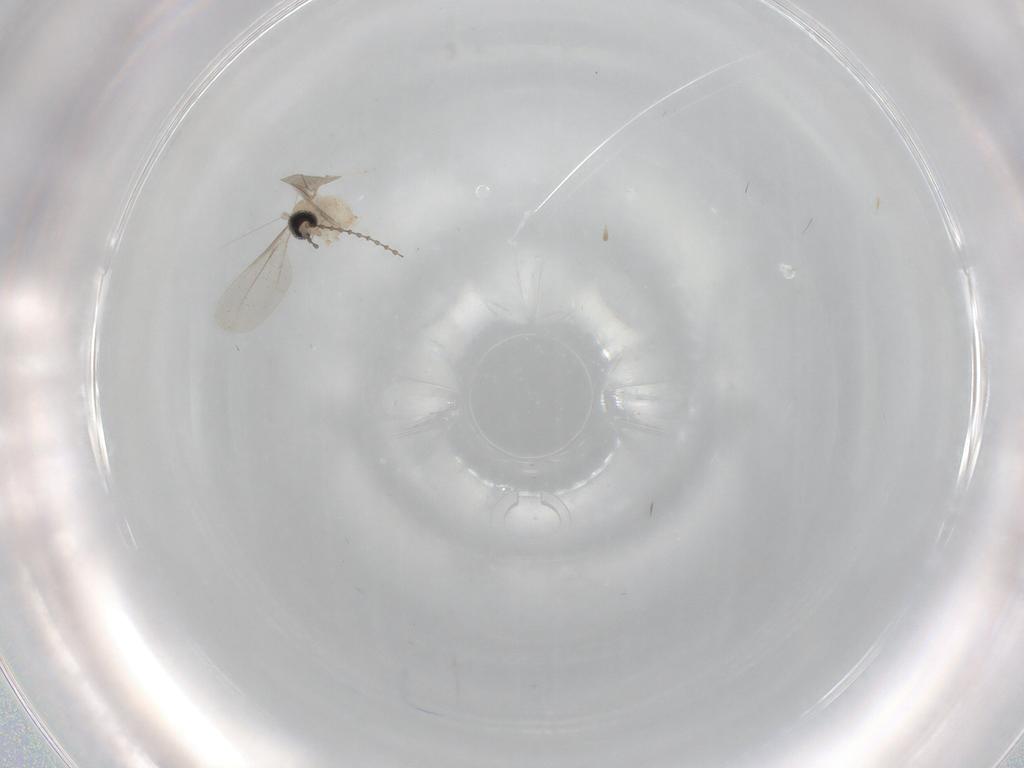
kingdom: Animalia
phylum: Arthropoda
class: Insecta
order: Diptera
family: Cecidomyiidae
